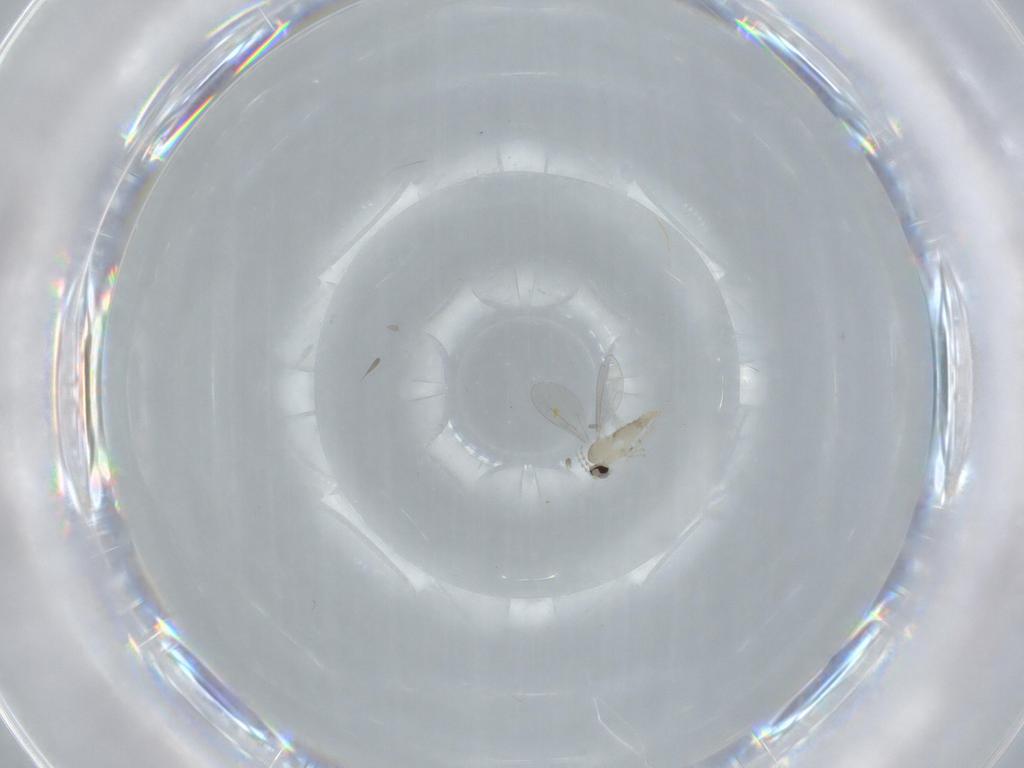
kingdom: Animalia
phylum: Arthropoda
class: Insecta
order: Diptera
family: Cecidomyiidae
